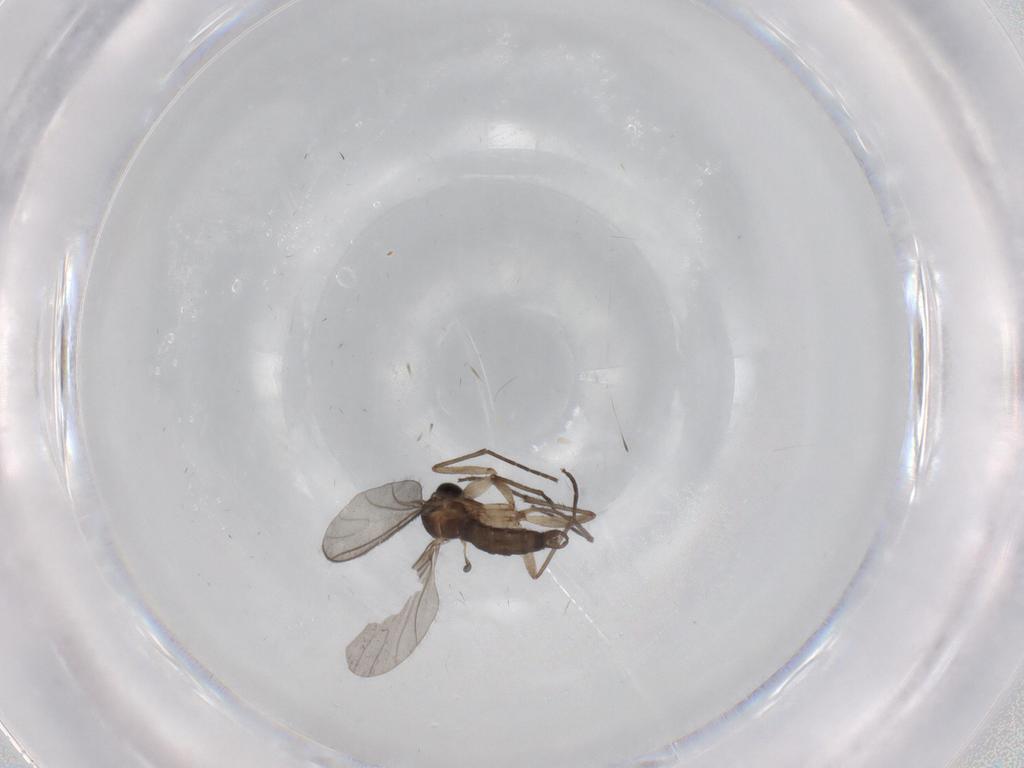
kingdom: Animalia
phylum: Arthropoda
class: Insecta
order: Diptera
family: Sciaridae
